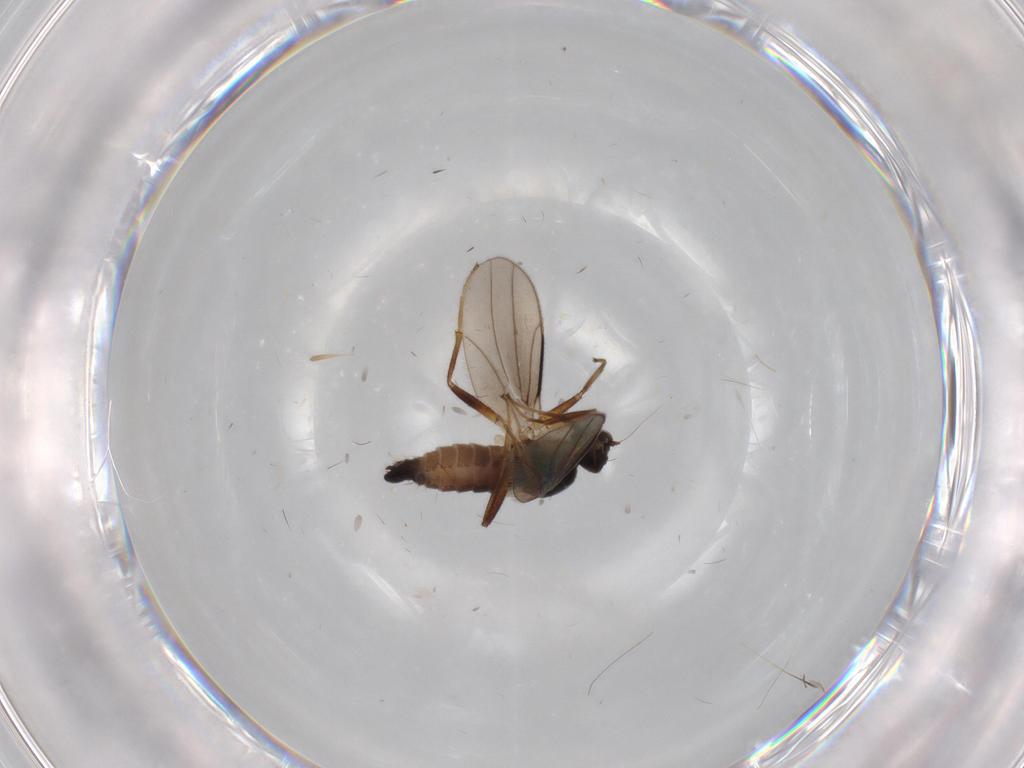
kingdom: Animalia
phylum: Arthropoda
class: Insecta
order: Diptera
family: Hybotidae
